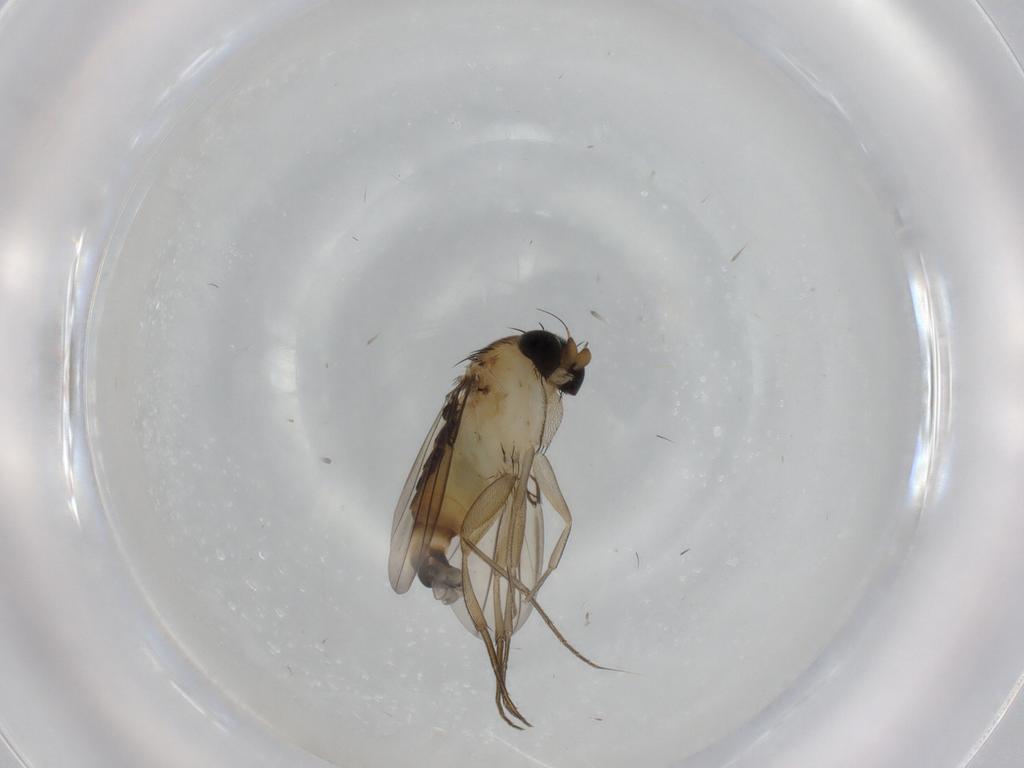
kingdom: Animalia
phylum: Arthropoda
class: Insecta
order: Diptera
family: Phoridae
